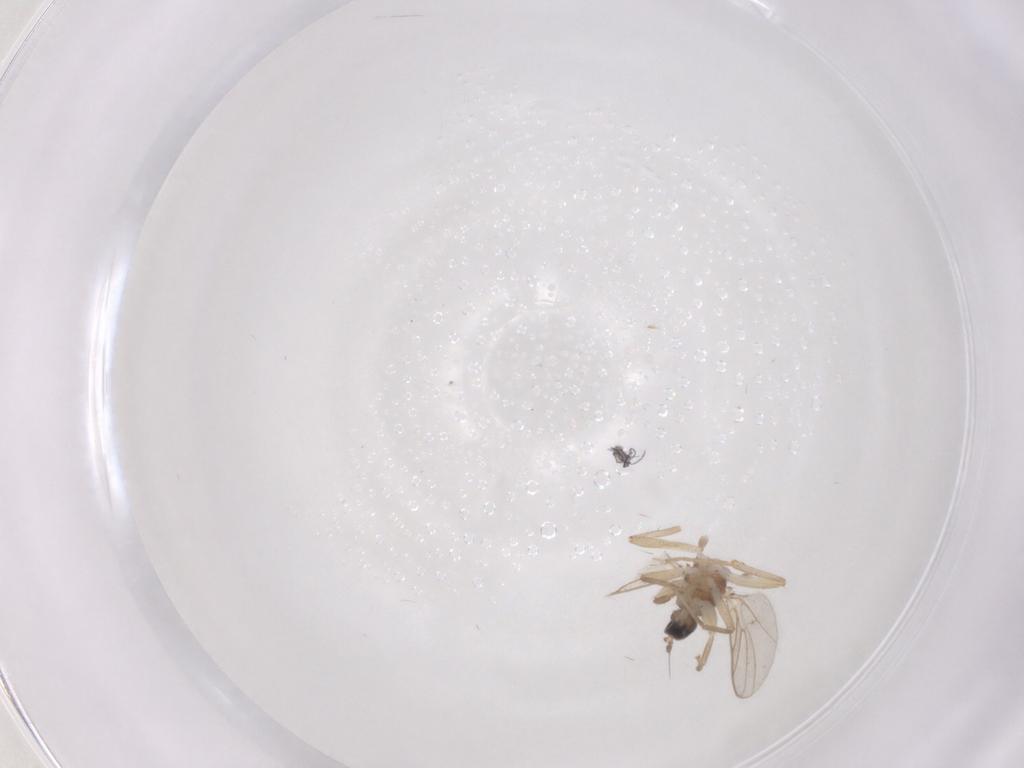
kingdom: Animalia
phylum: Arthropoda
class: Insecta
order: Diptera
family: Hybotidae
